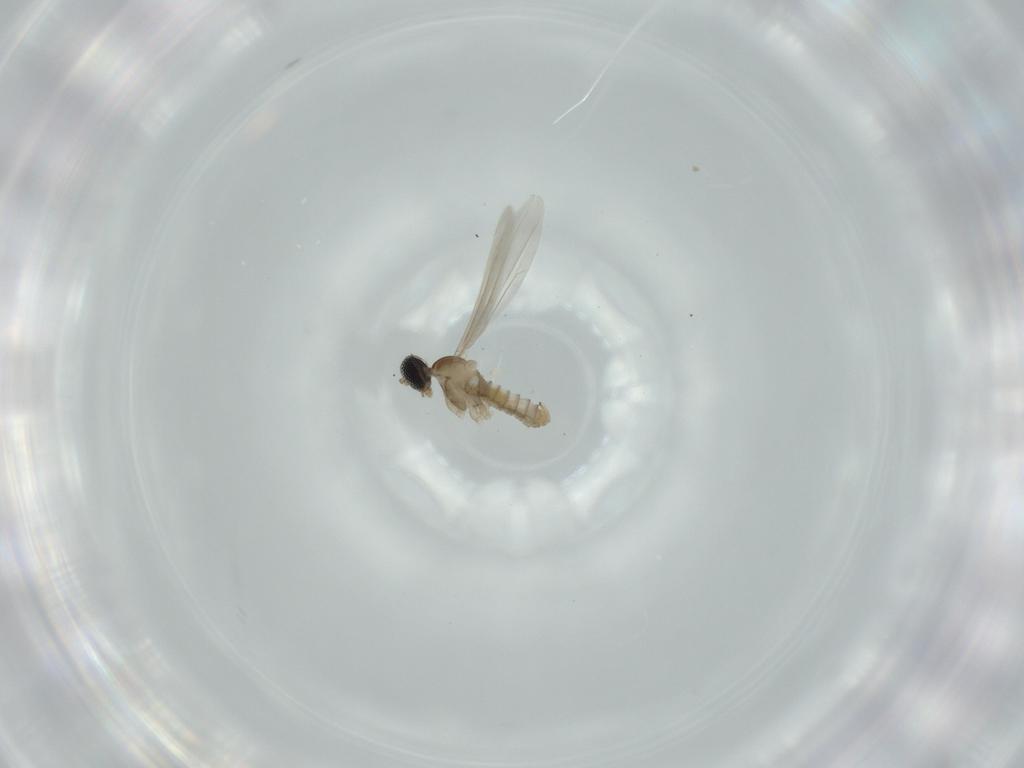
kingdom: Animalia
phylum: Arthropoda
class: Insecta
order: Diptera
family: Cecidomyiidae
